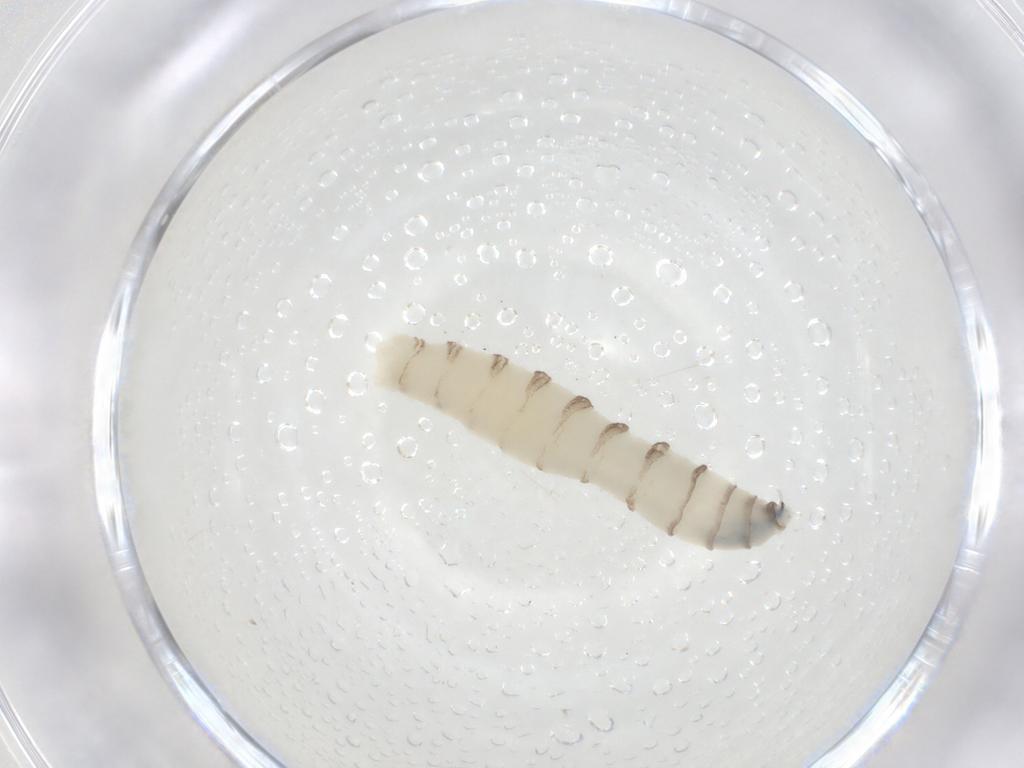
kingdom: Animalia
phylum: Arthropoda
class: Insecta
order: Diptera
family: Sarcophagidae
